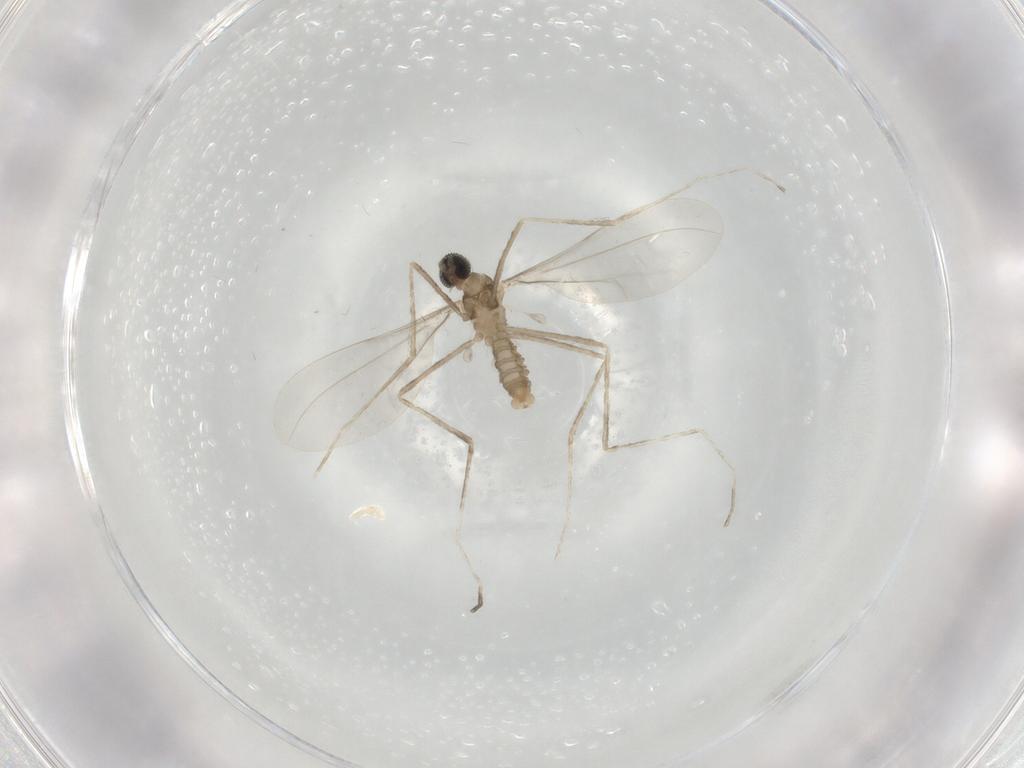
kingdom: Animalia
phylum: Arthropoda
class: Insecta
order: Diptera
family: Cecidomyiidae
